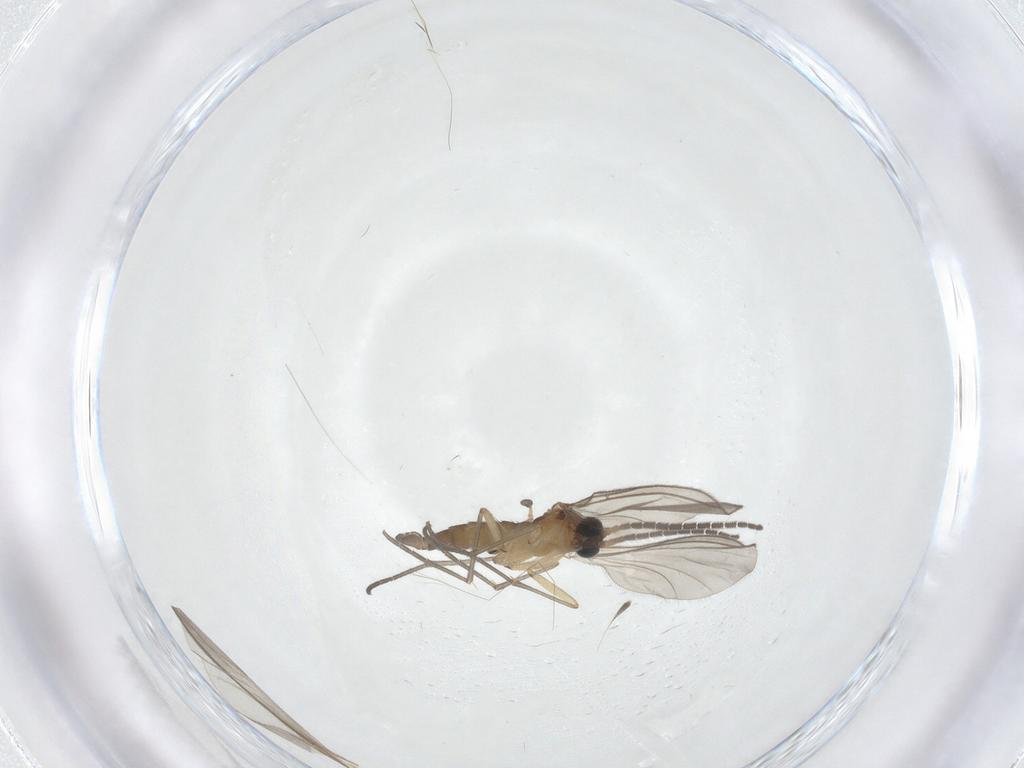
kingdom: Animalia
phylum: Arthropoda
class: Insecta
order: Diptera
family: Sciaridae
